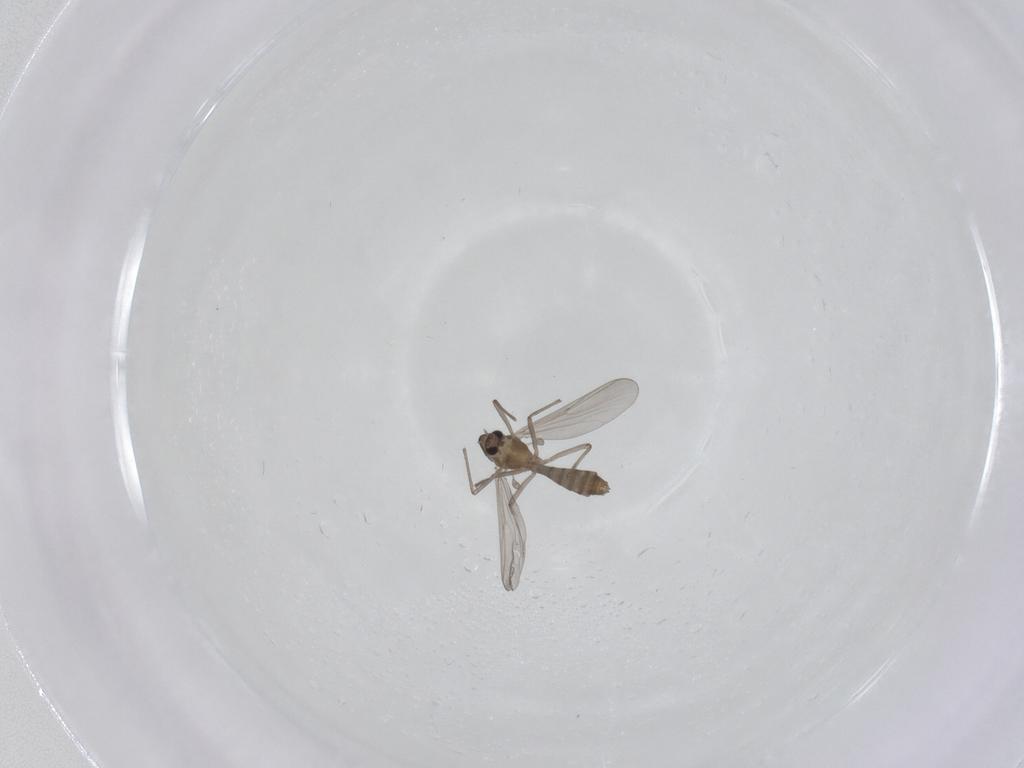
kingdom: Animalia
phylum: Arthropoda
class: Insecta
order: Diptera
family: Chironomidae
